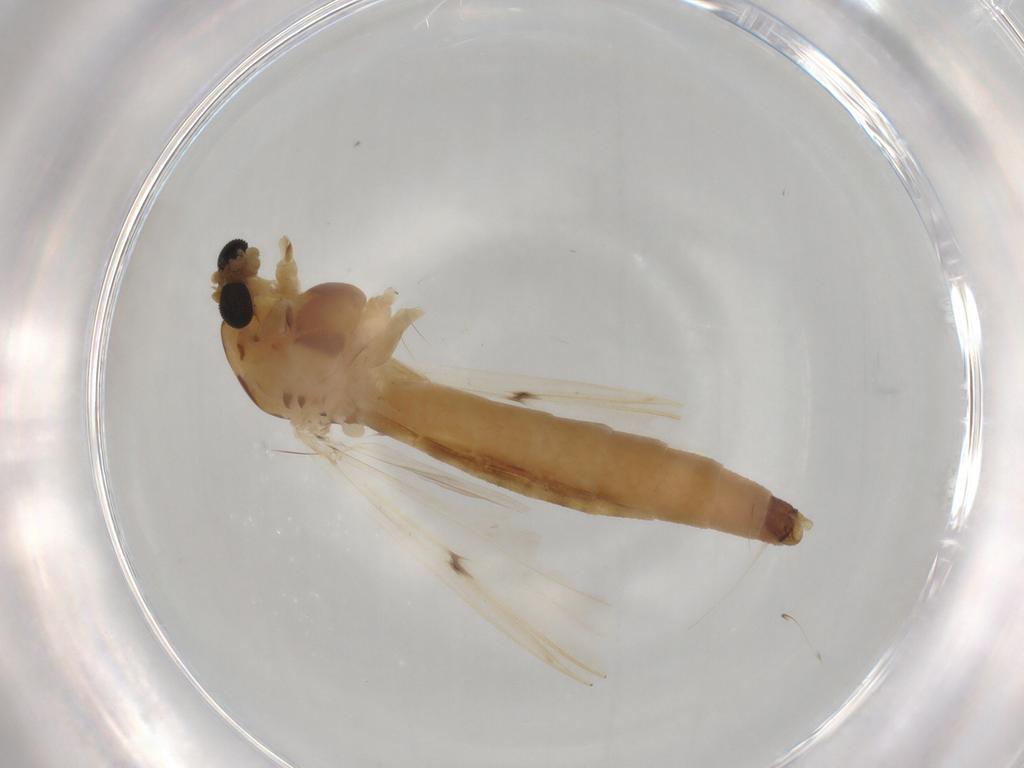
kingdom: Animalia
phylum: Arthropoda
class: Insecta
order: Diptera
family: Chironomidae
